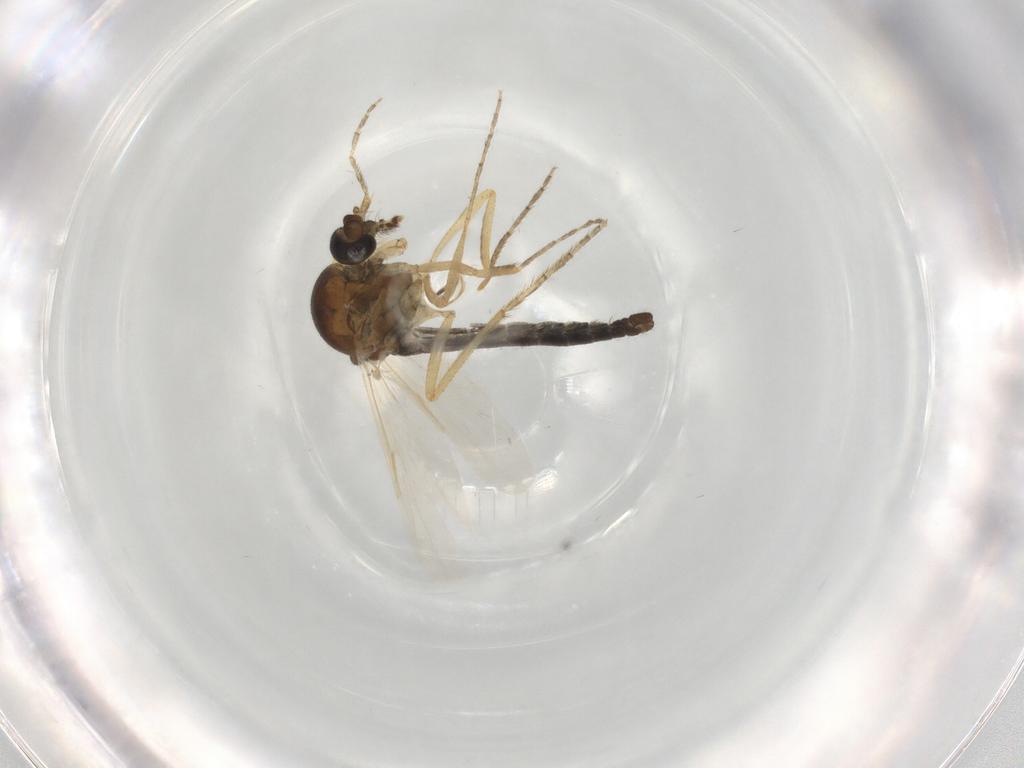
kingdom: Animalia
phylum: Arthropoda
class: Insecta
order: Diptera
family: Ceratopogonidae
